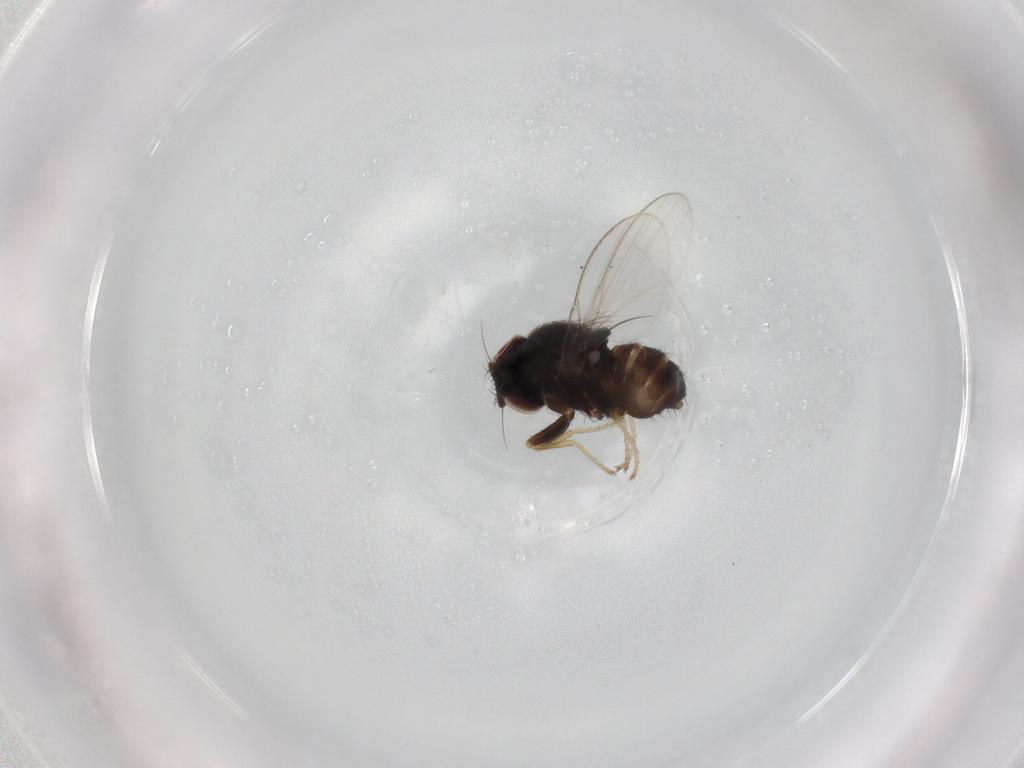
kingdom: Animalia
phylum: Arthropoda
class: Insecta
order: Diptera
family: Milichiidae
